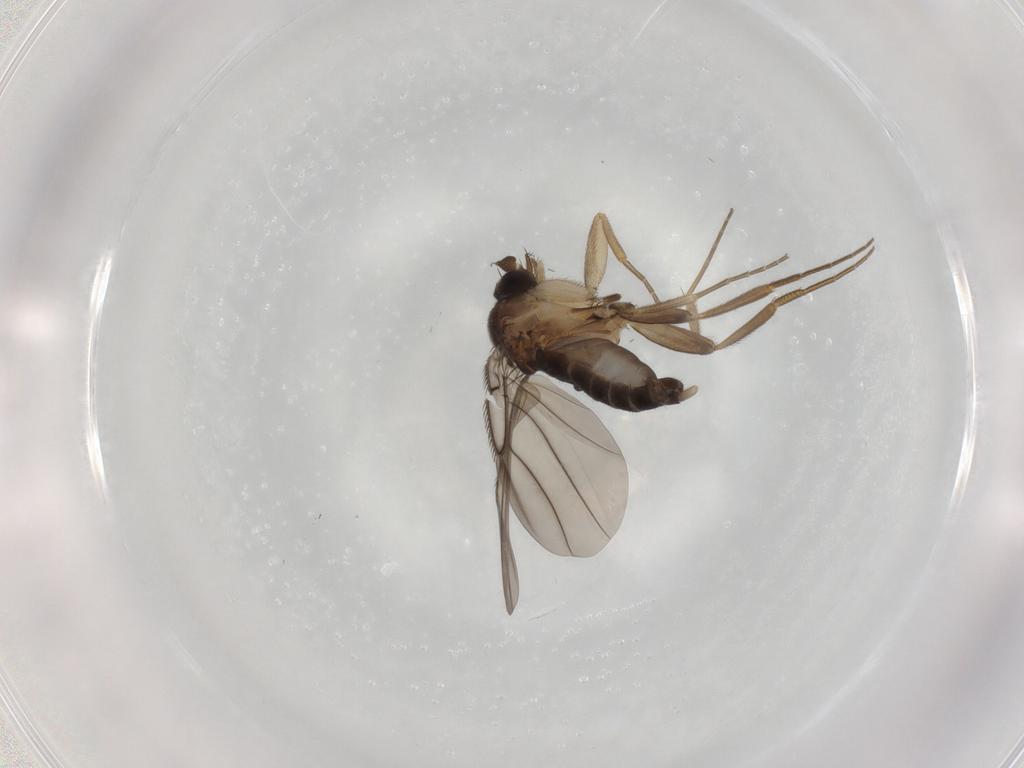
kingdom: Animalia
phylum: Arthropoda
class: Insecta
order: Diptera
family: Phoridae
